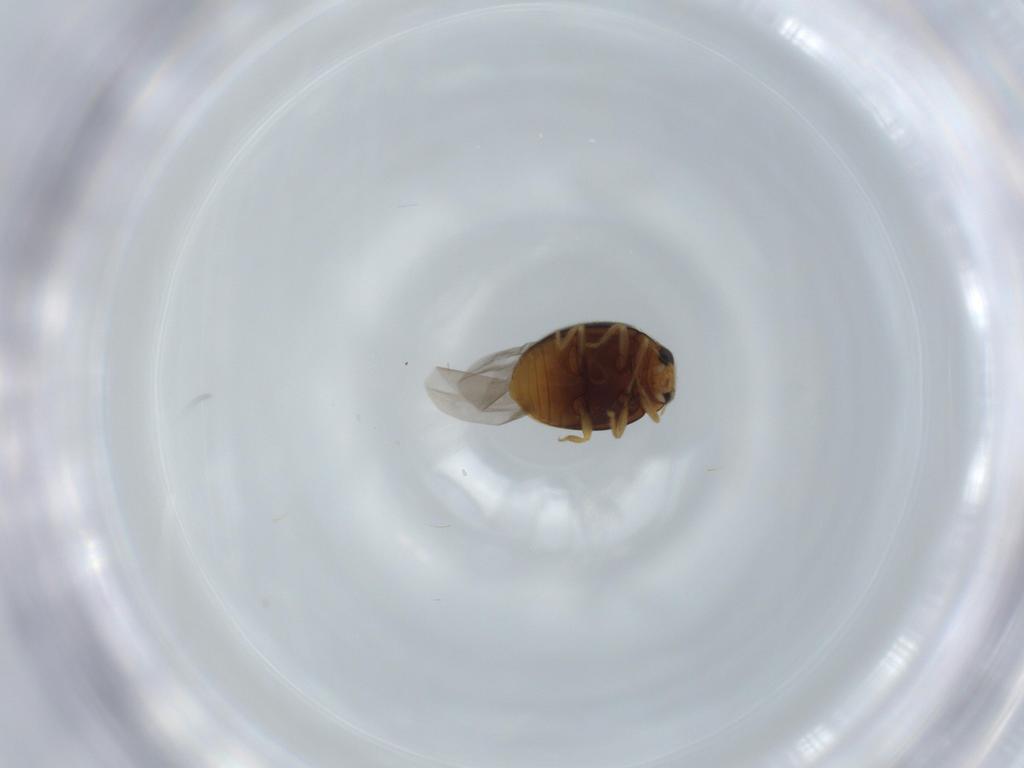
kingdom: Animalia
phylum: Arthropoda
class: Insecta
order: Coleoptera
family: Coccinellidae
